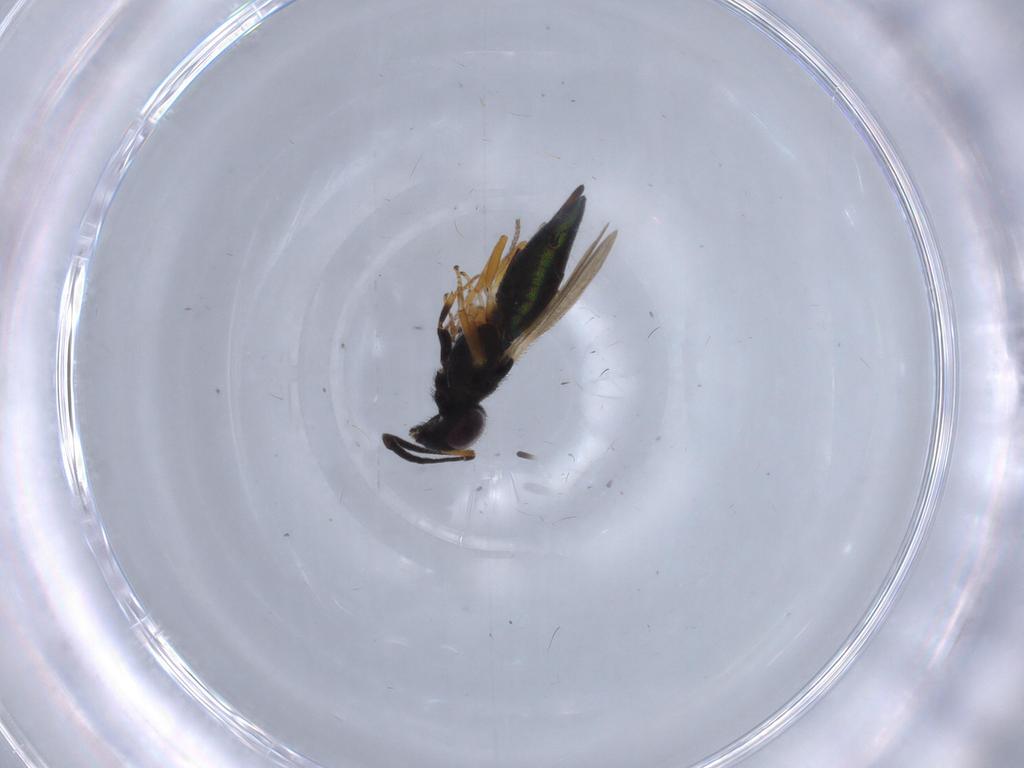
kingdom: Animalia
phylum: Arthropoda
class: Insecta
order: Hymenoptera
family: Eupelmidae
